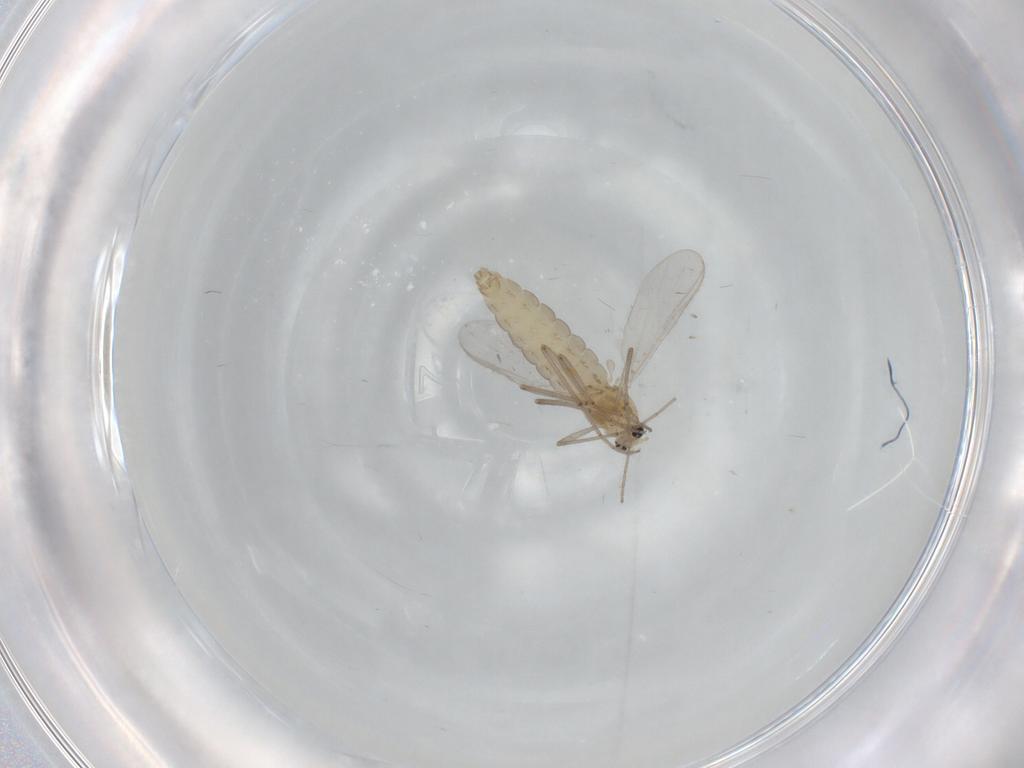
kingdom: Animalia
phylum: Arthropoda
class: Insecta
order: Diptera
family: Chironomidae
